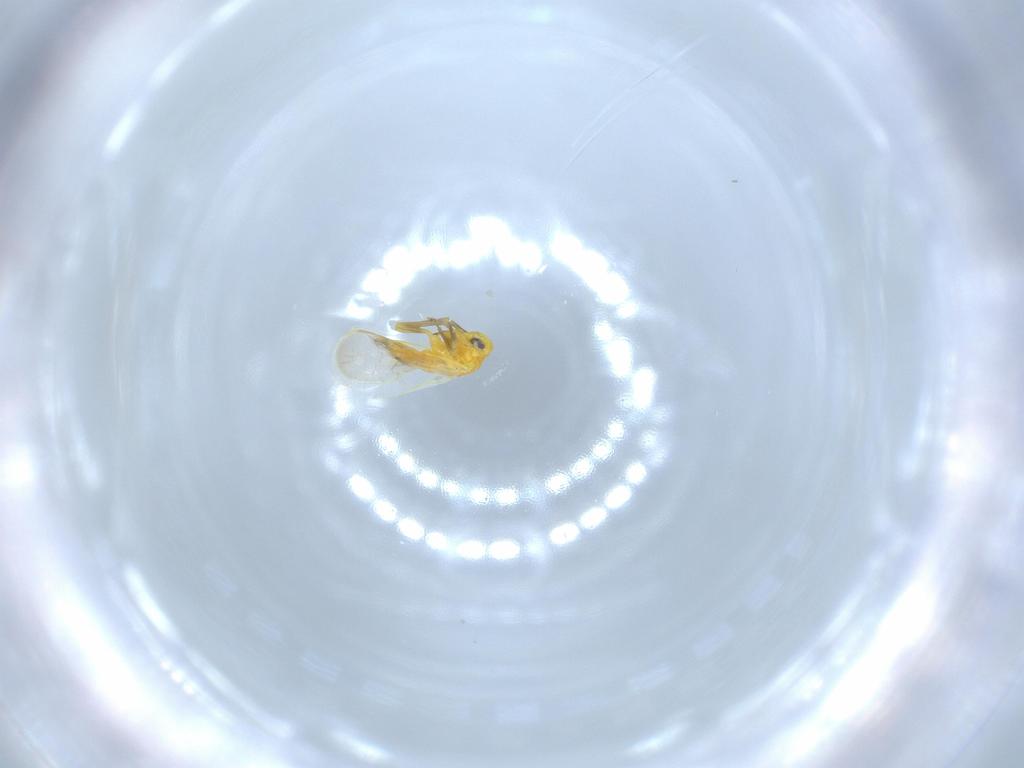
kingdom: Animalia
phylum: Arthropoda
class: Insecta
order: Hemiptera
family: Aleyrodidae
